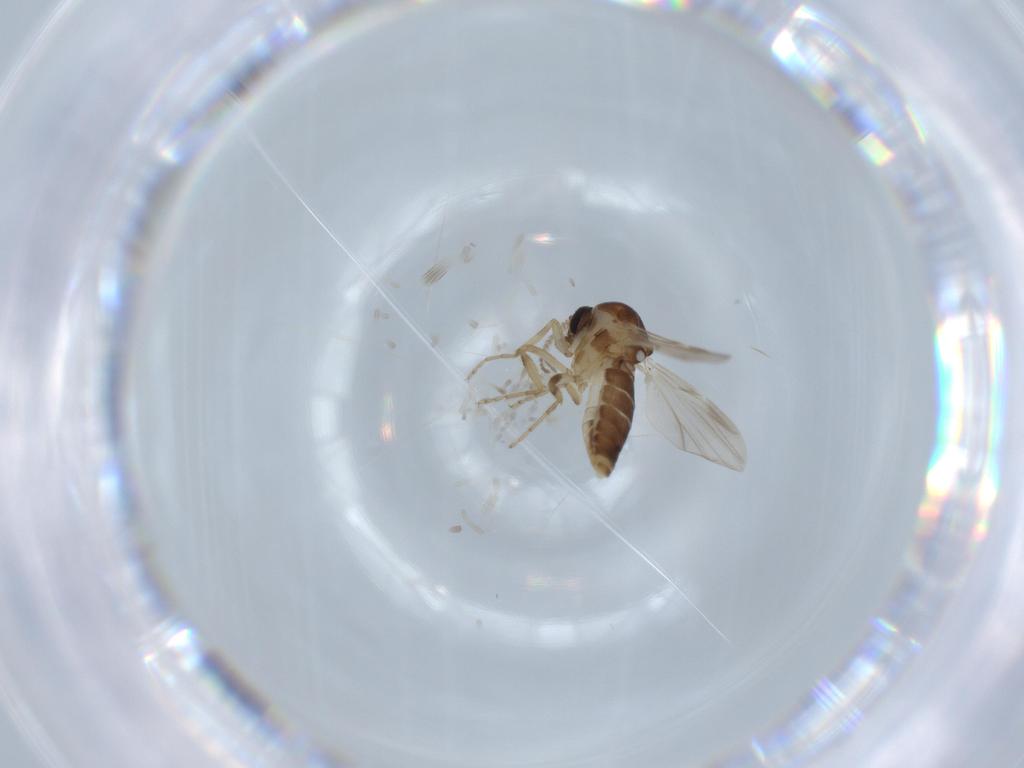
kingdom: Animalia
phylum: Arthropoda
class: Insecta
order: Diptera
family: Ceratopogonidae
